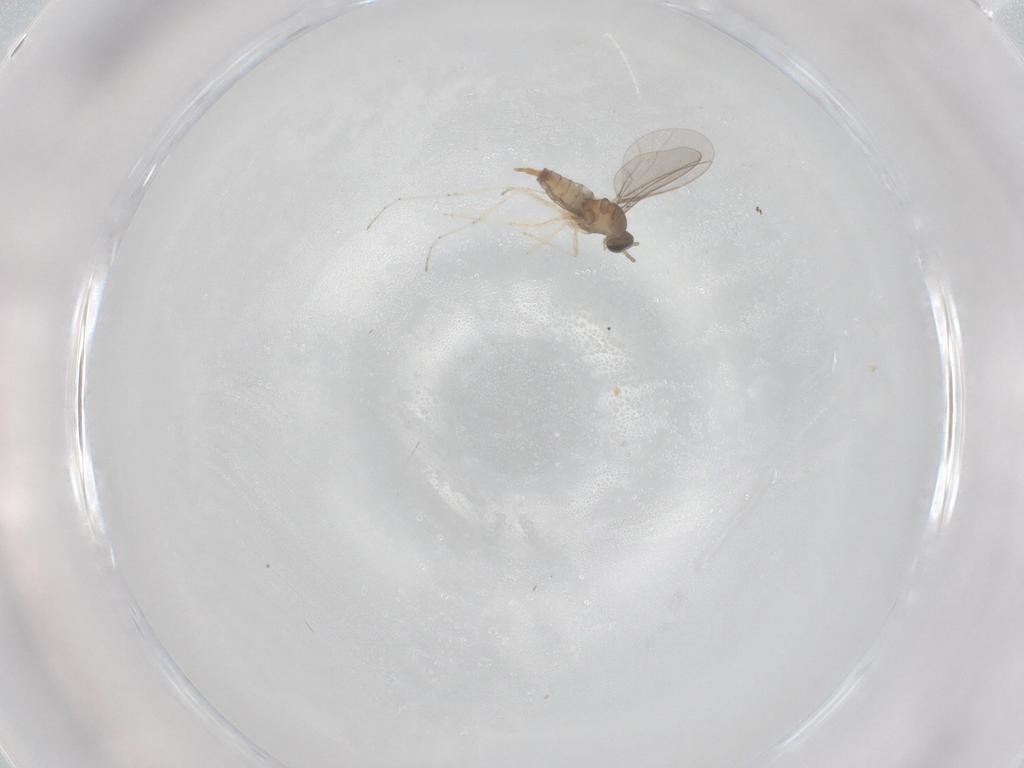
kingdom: Animalia
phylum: Arthropoda
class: Insecta
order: Diptera
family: Cecidomyiidae
